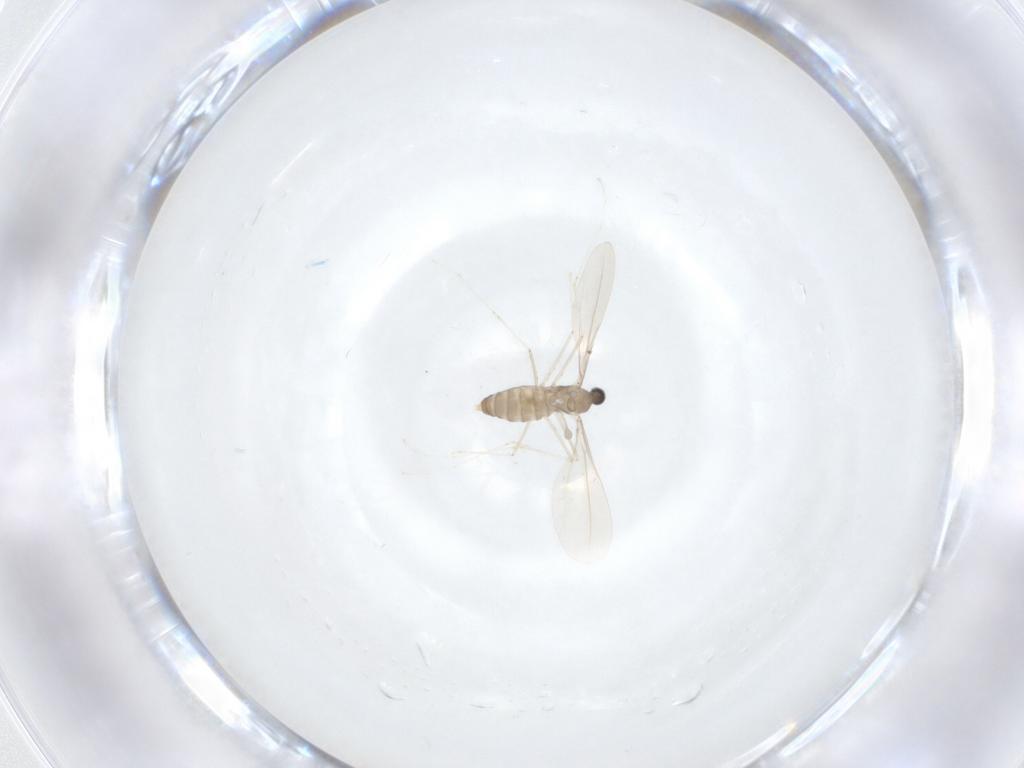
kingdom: Animalia
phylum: Arthropoda
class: Insecta
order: Diptera
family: Cecidomyiidae
